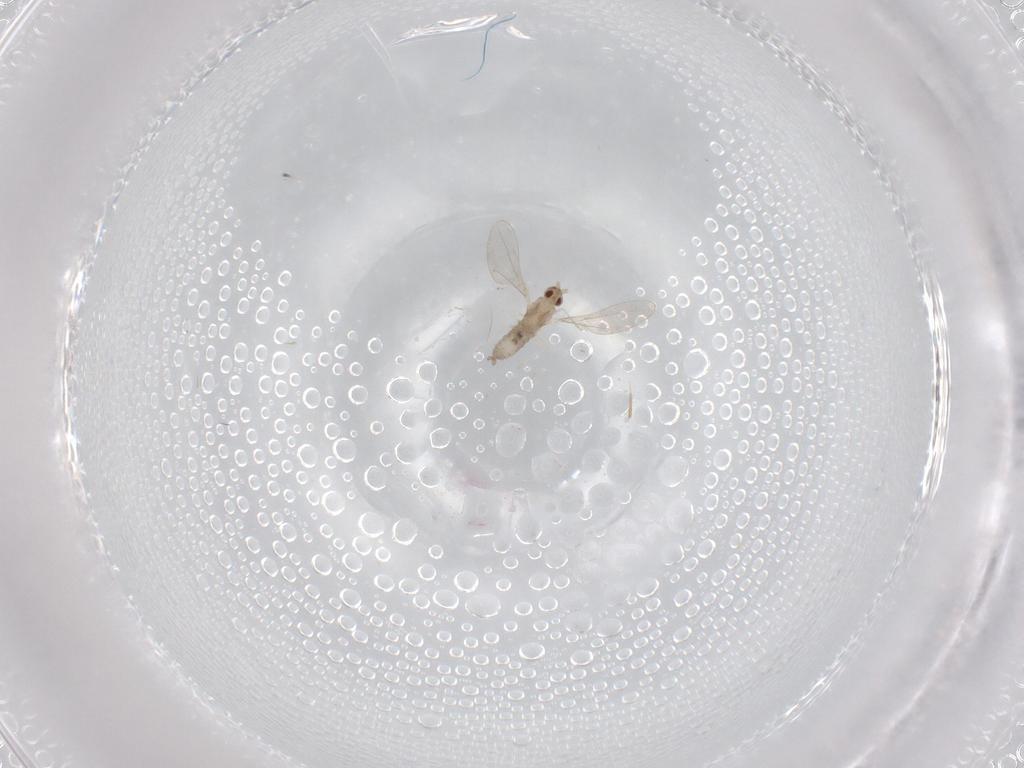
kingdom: Animalia
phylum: Arthropoda
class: Insecta
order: Diptera
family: Cecidomyiidae
